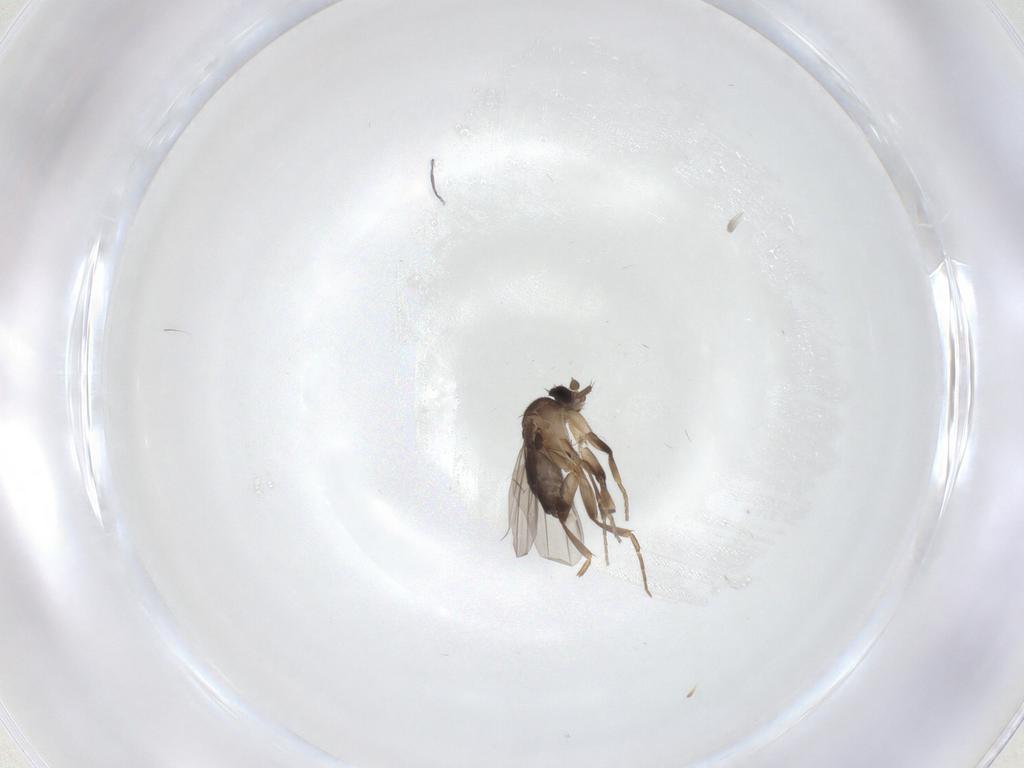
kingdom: Animalia
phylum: Arthropoda
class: Insecta
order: Diptera
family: Phoridae
